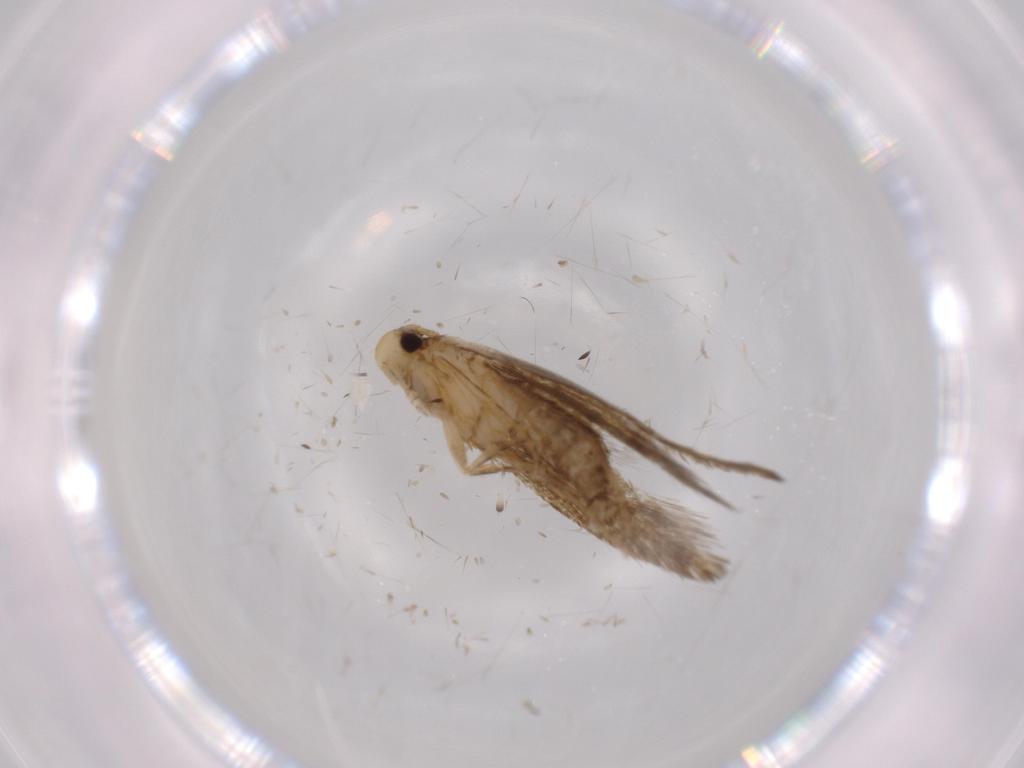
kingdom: Animalia
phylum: Arthropoda
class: Insecta
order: Lepidoptera
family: Tineidae
